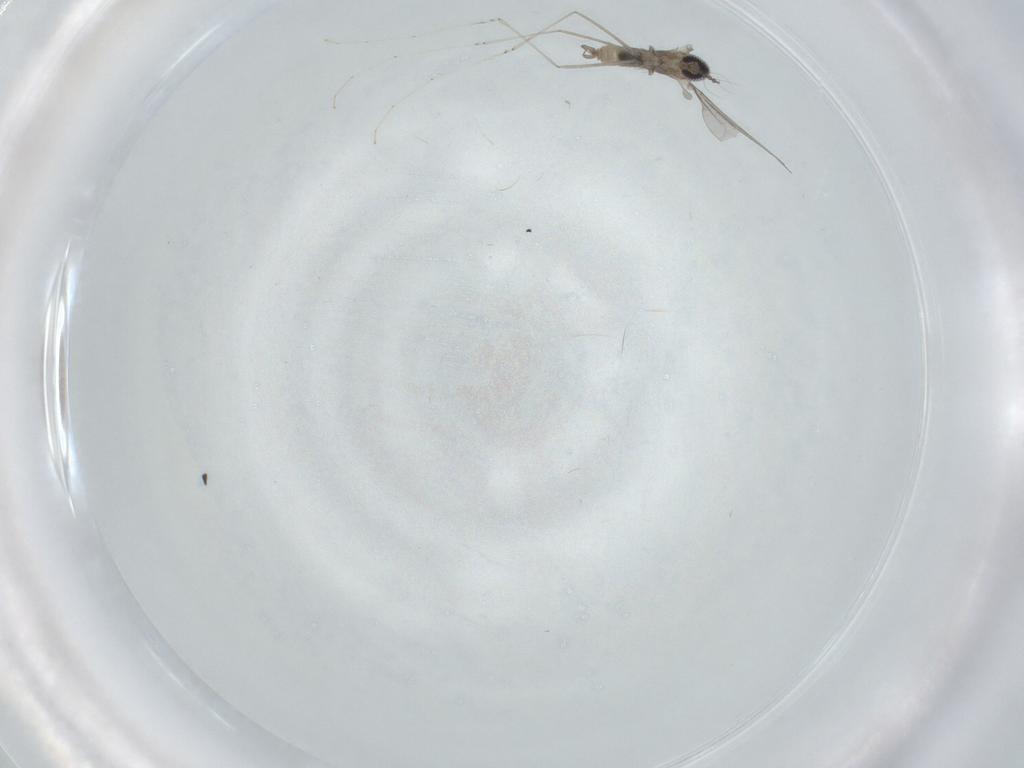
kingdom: Animalia
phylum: Arthropoda
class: Insecta
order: Diptera
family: Cecidomyiidae
